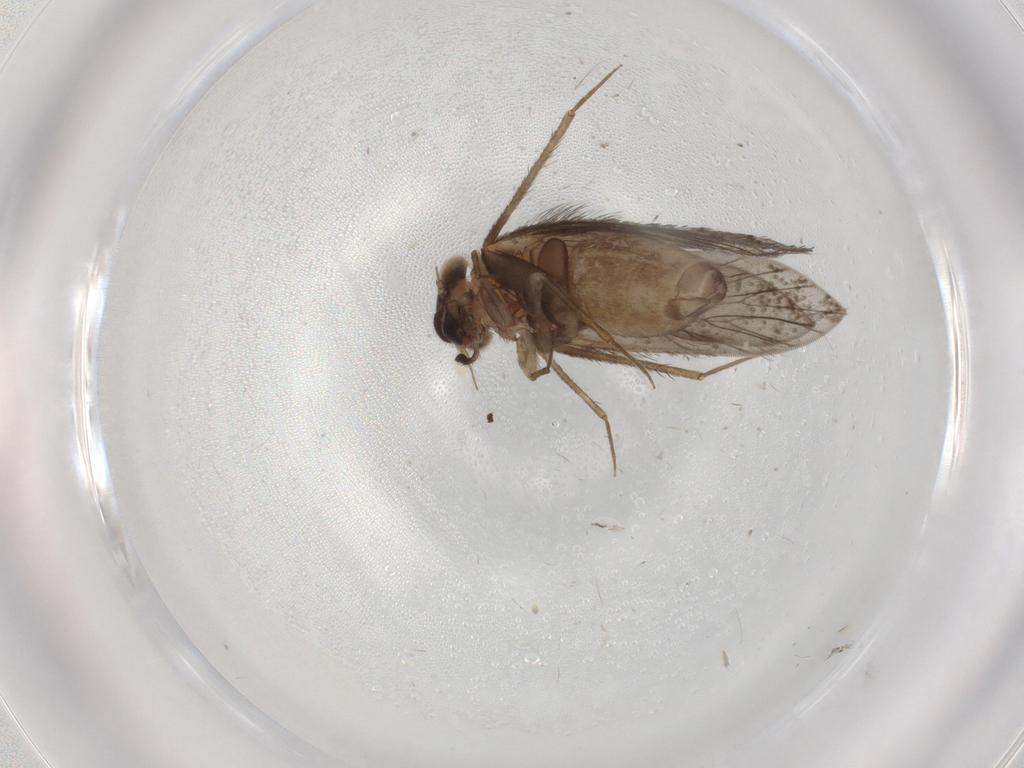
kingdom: Animalia
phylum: Arthropoda
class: Insecta
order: Psocodea
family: Lepidopsocidae
